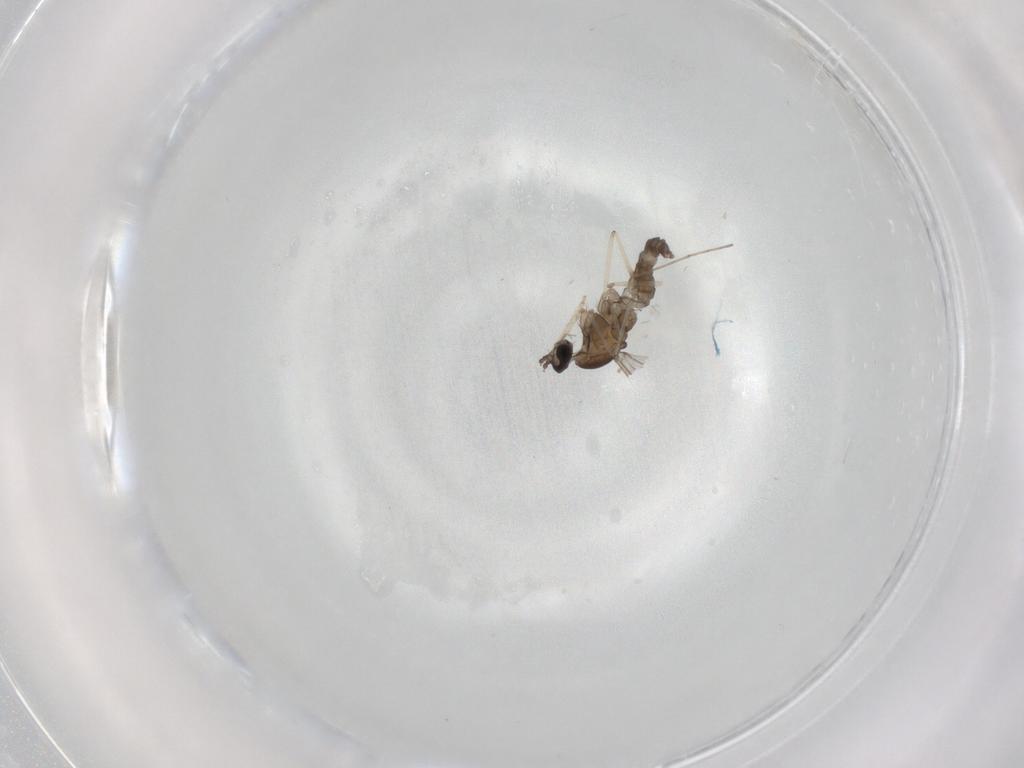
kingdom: Animalia
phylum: Arthropoda
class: Insecta
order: Diptera
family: Cecidomyiidae
